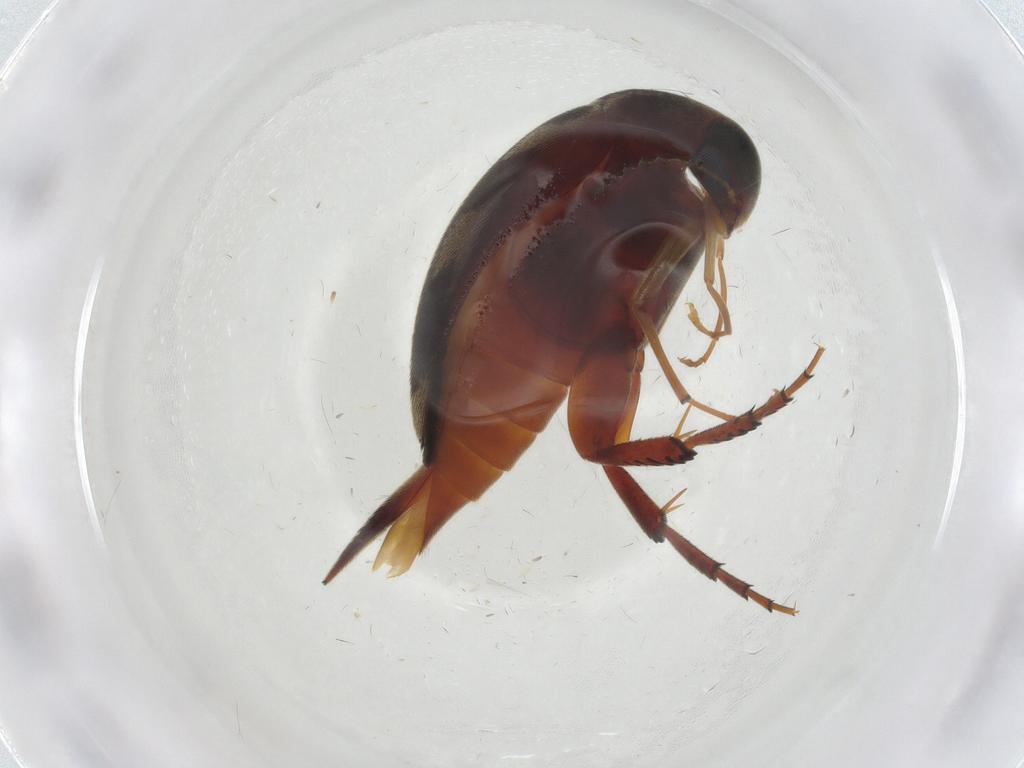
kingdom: Animalia
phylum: Arthropoda
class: Insecta
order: Coleoptera
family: Mordellidae
